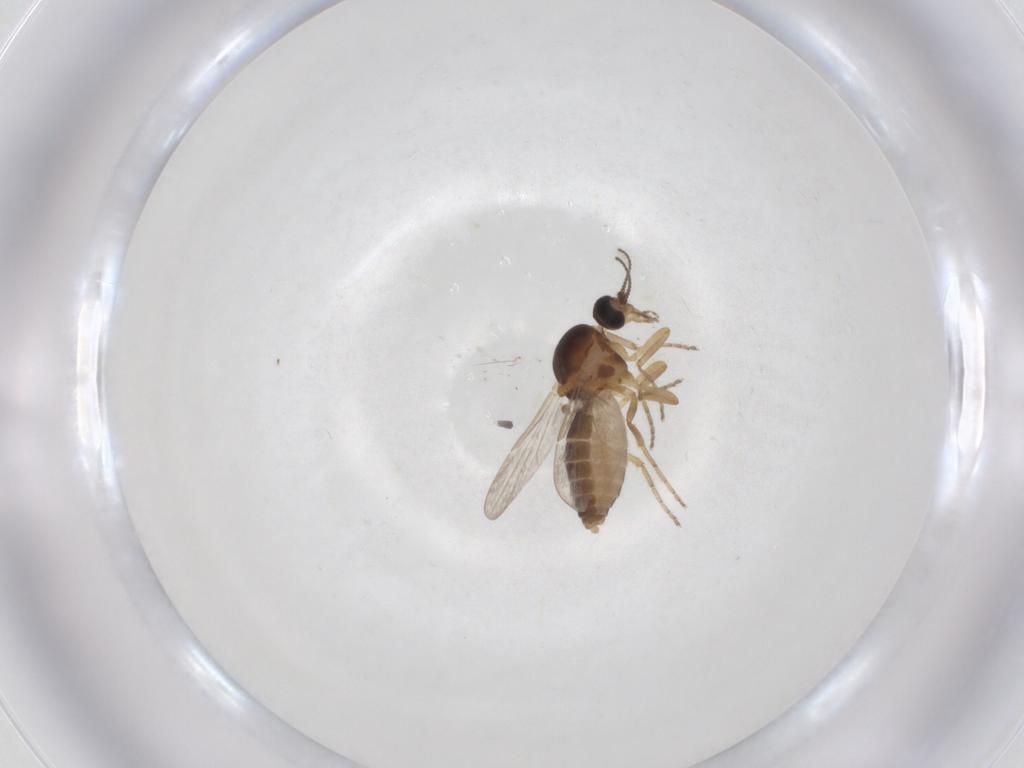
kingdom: Animalia
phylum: Arthropoda
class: Insecta
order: Diptera
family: Ceratopogonidae
